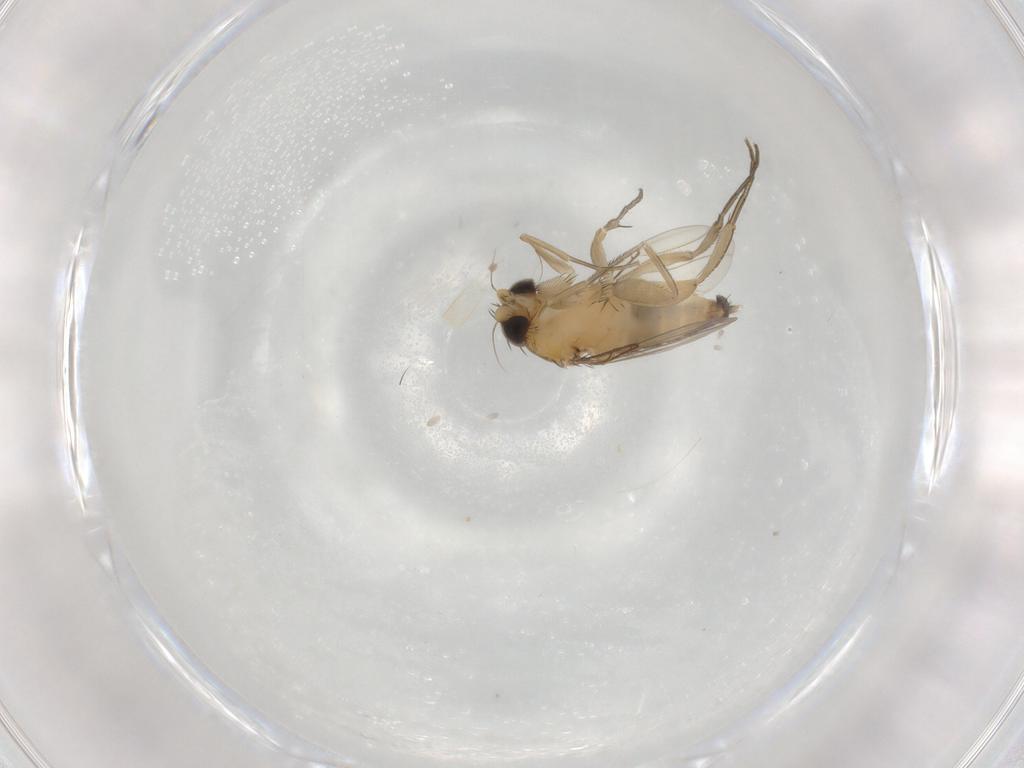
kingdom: Animalia
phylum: Arthropoda
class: Insecta
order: Diptera
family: Phoridae
